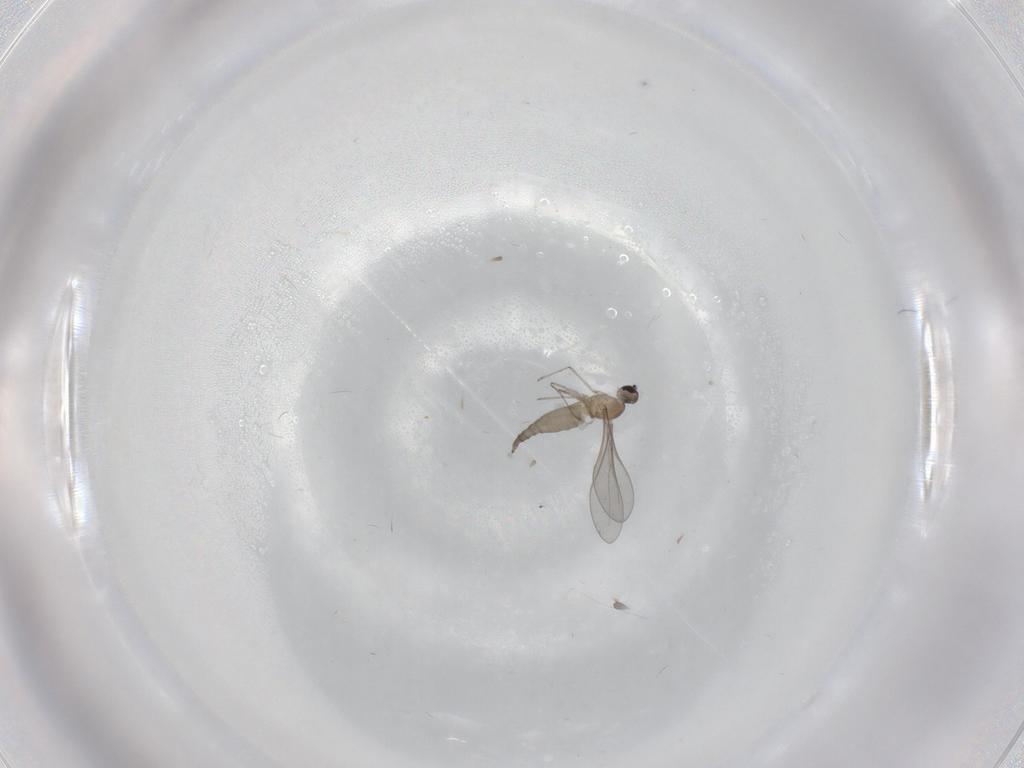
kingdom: Animalia
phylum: Arthropoda
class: Insecta
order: Diptera
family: Cecidomyiidae
